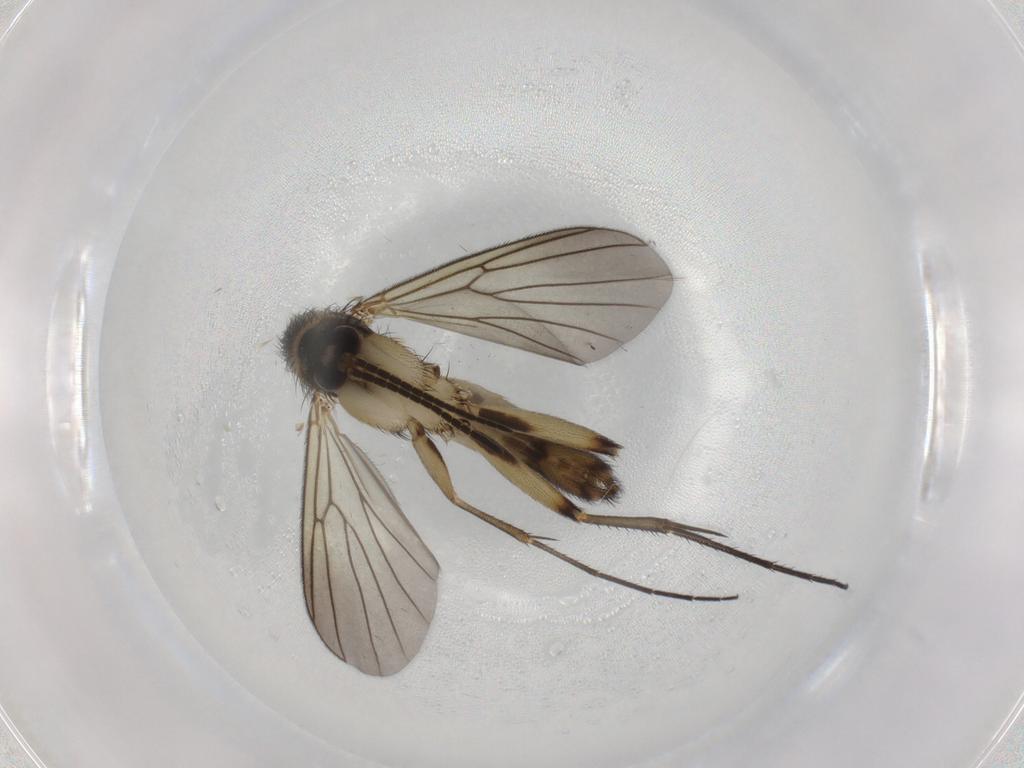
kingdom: Animalia
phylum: Arthropoda
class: Insecta
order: Diptera
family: Mycetophilidae
